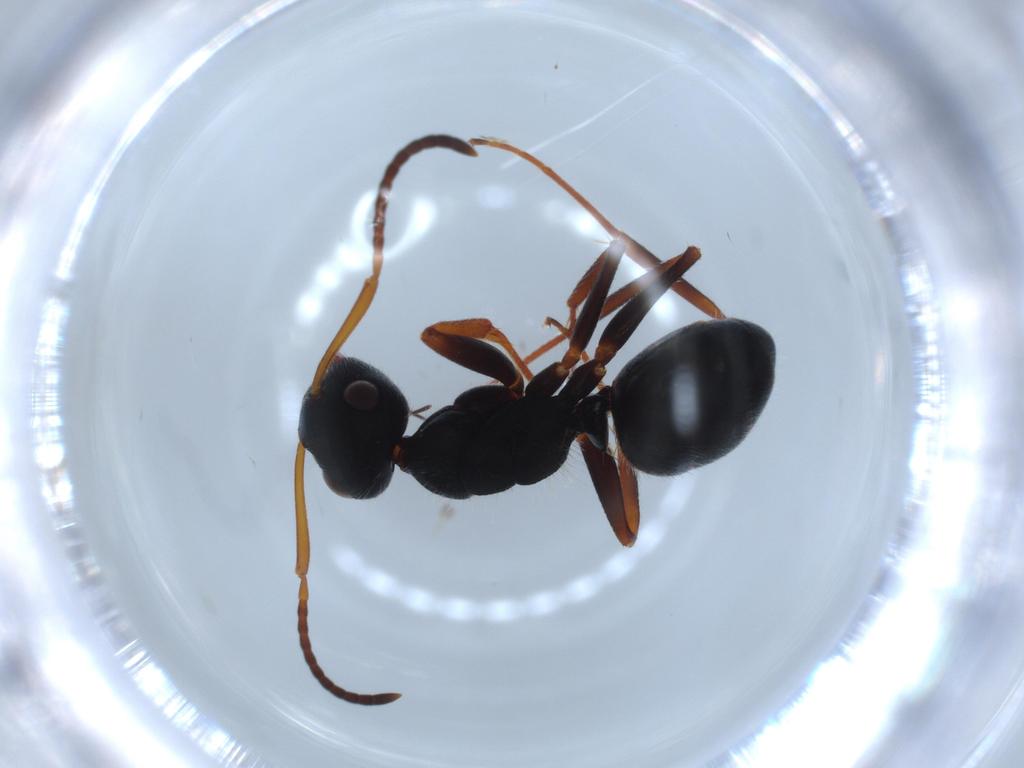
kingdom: Animalia
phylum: Arthropoda
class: Insecta
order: Hymenoptera
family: Formicidae
